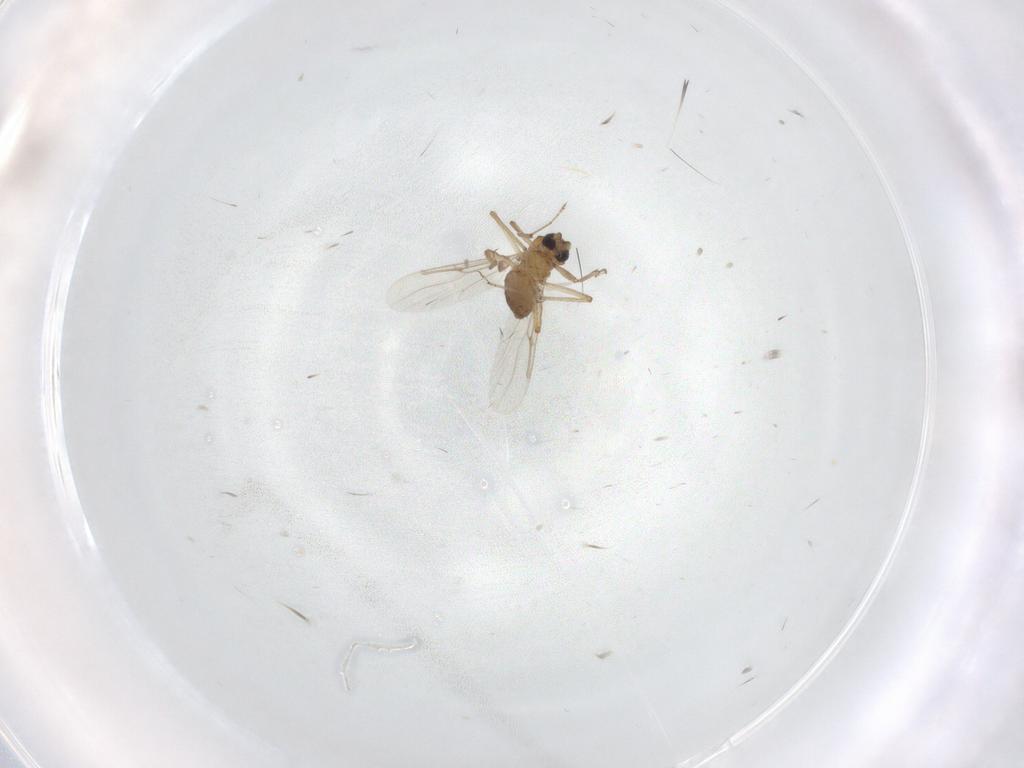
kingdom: Animalia
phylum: Arthropoda
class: Insecta
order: Diptera
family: Ceratopogonidae
